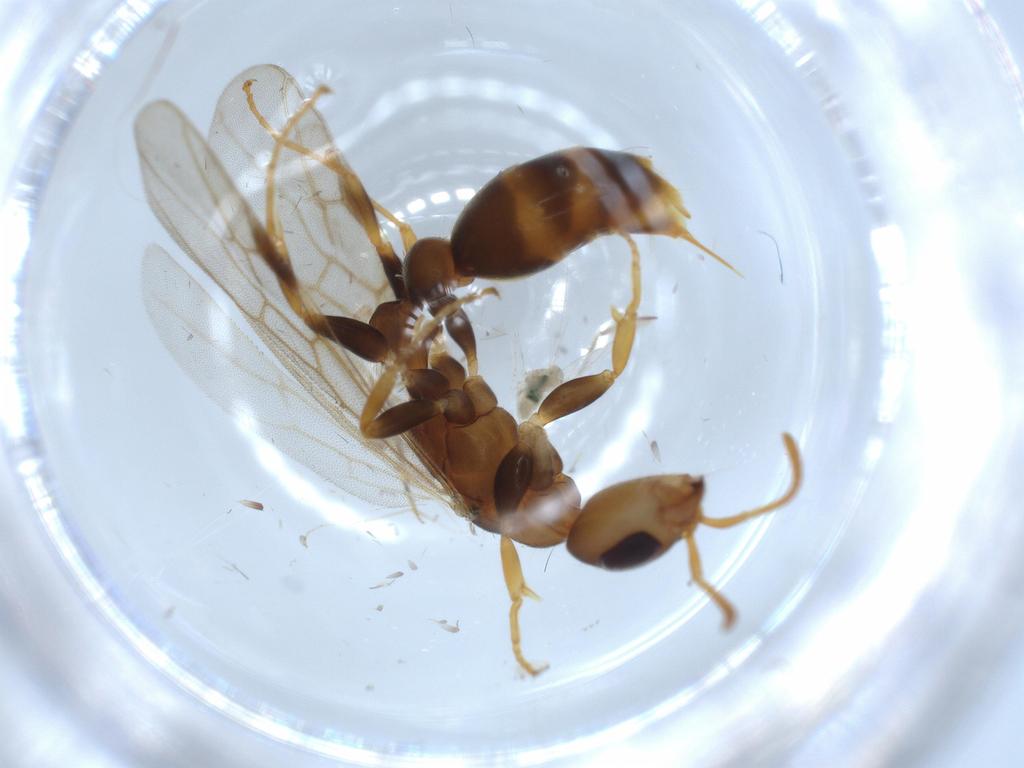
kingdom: Animalia
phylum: Arthropoda
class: Insecta
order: Hymenoptera
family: Formicidae
